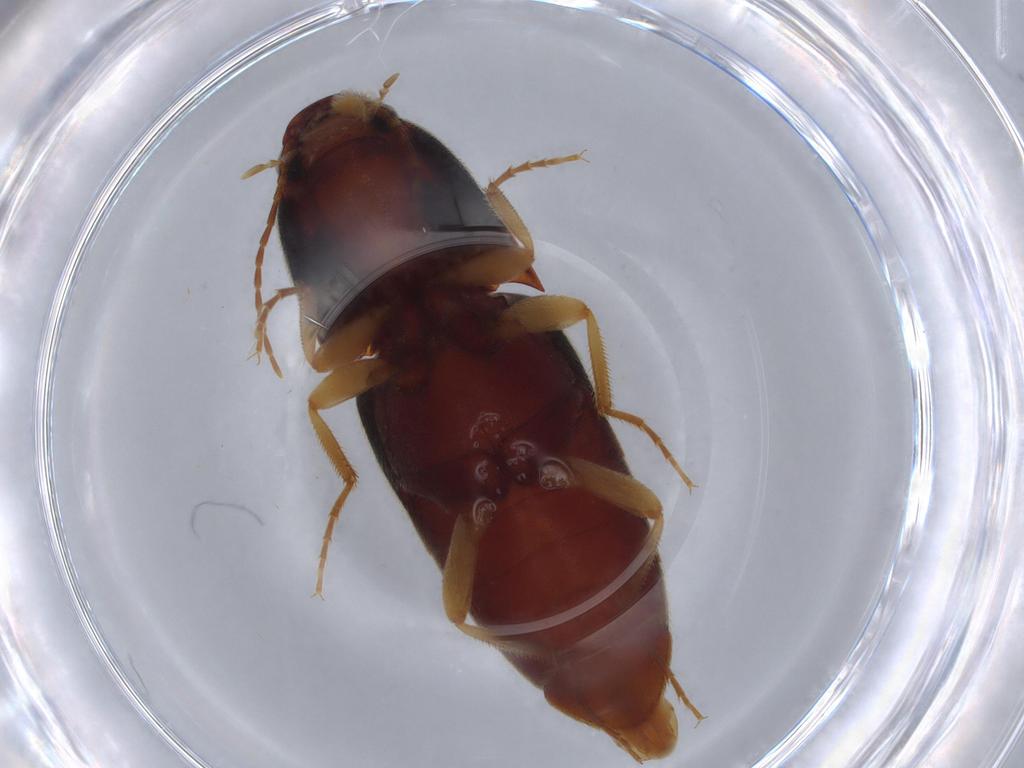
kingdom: Animalia
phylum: Arthropoda
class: Insecta
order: Coleoptera
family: Elateridae
